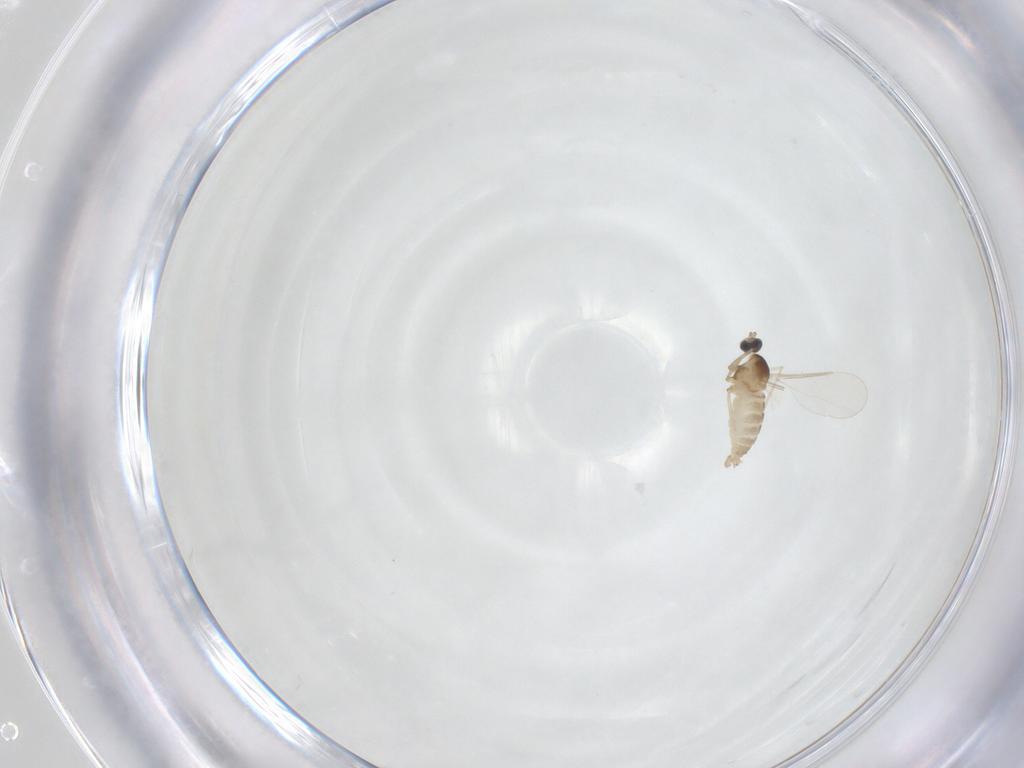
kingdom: Animalia
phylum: Arthropoda
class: Insecta
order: Diptera
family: Cecidomyiidae
